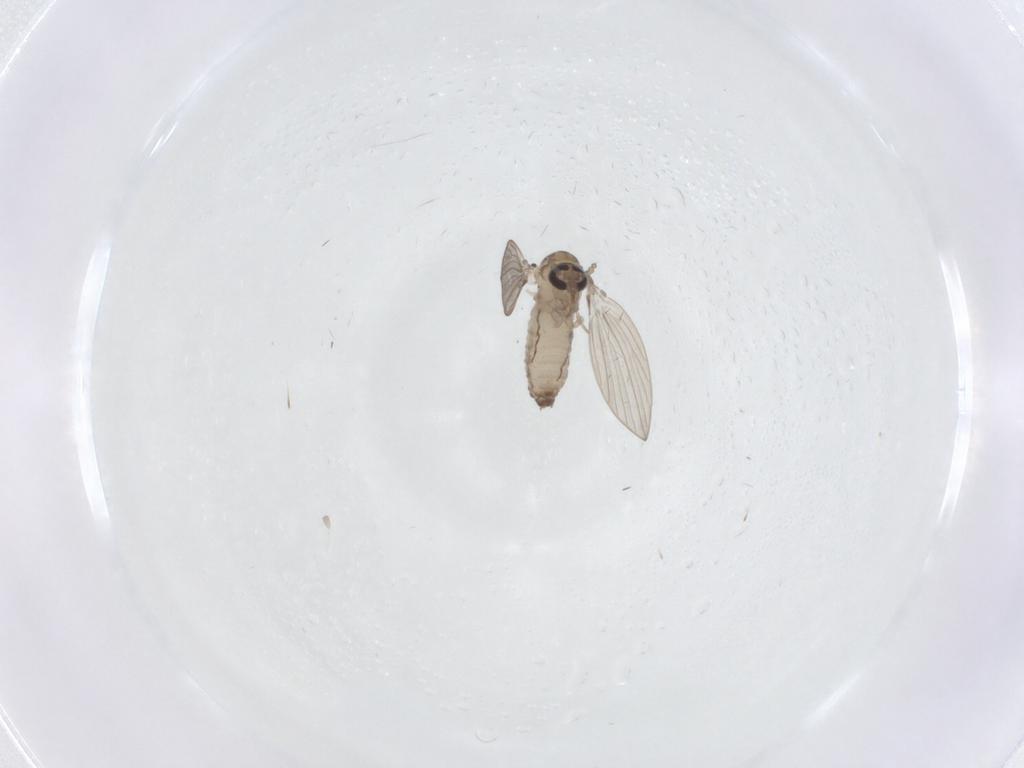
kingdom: Animalia
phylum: Arthropoda
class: Insecta
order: Diptera
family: Psychodidae
